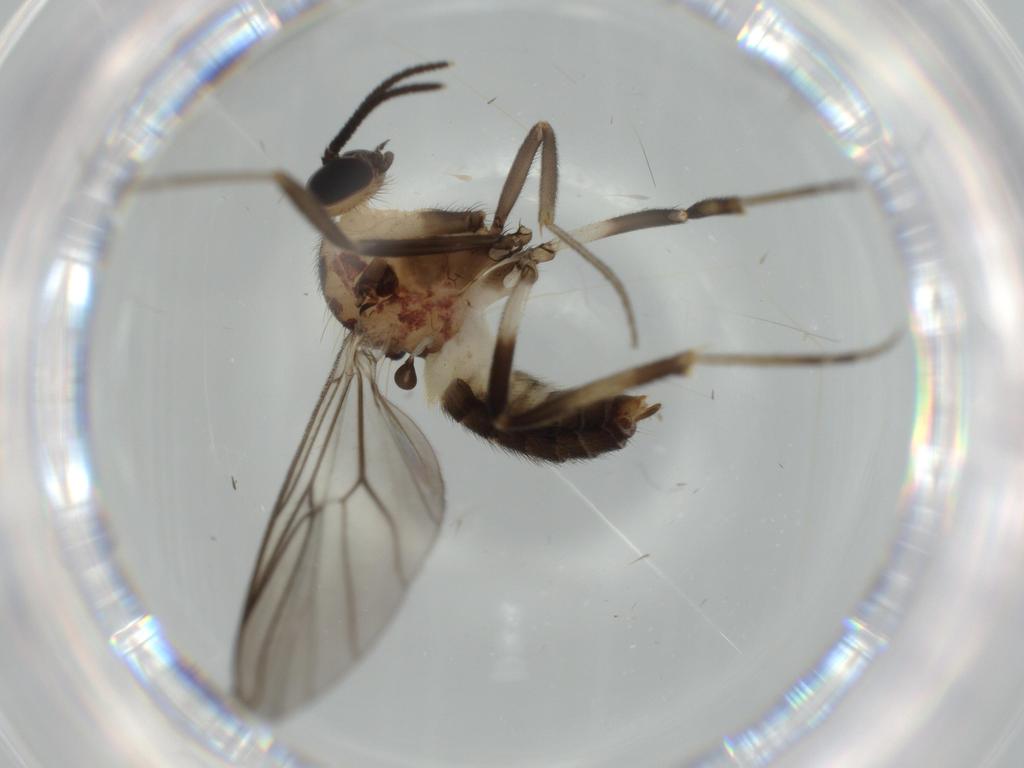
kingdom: Animalia
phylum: Arthropoda
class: Insecta
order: Diptera
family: Chironomidae
